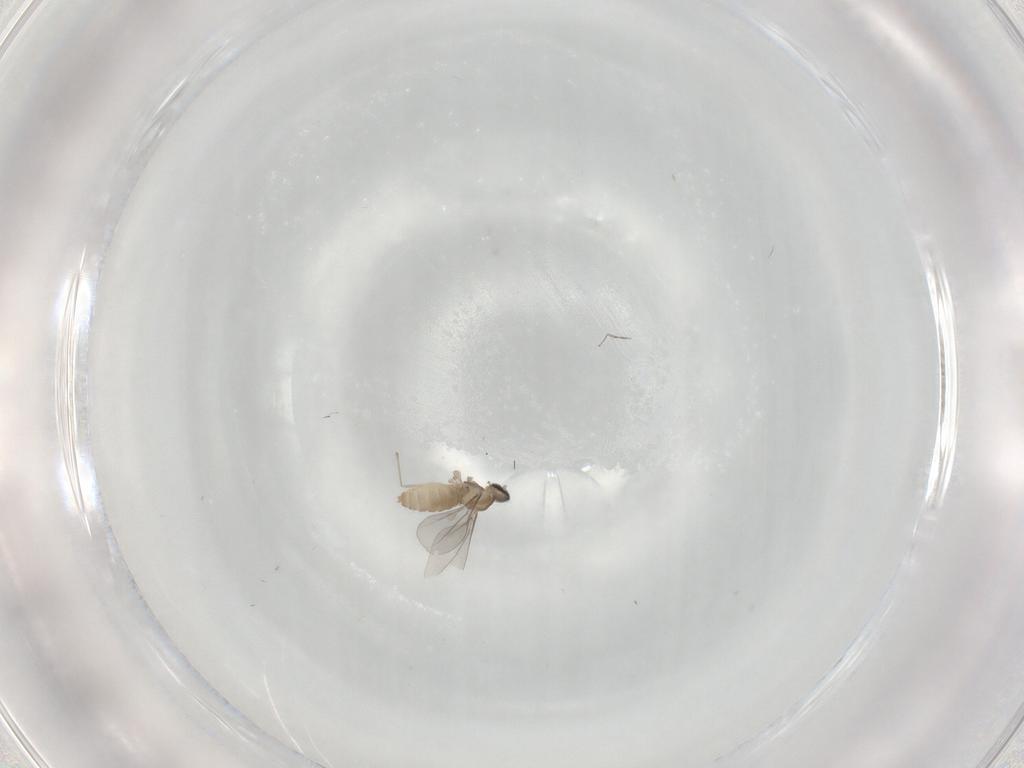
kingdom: Animalia
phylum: Arthropoda
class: Insecta
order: Diptera
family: Cecidomyiidae
